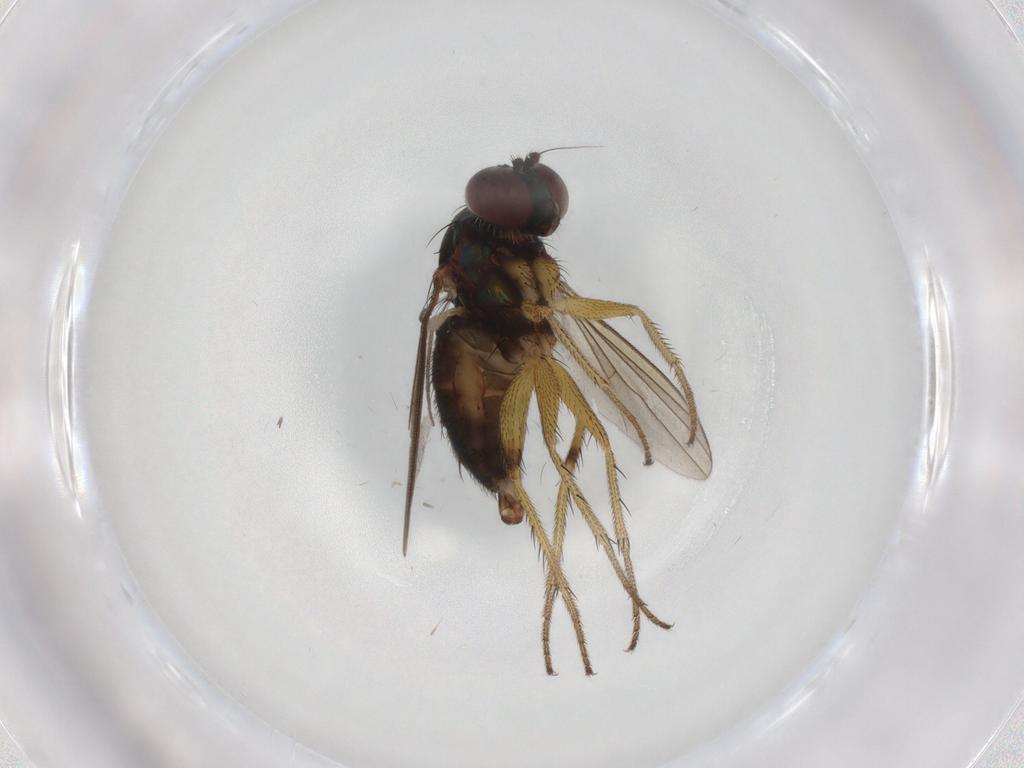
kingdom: Animalia
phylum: Arthropoda
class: Insecta
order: Diptera
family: Dolichopodidae
